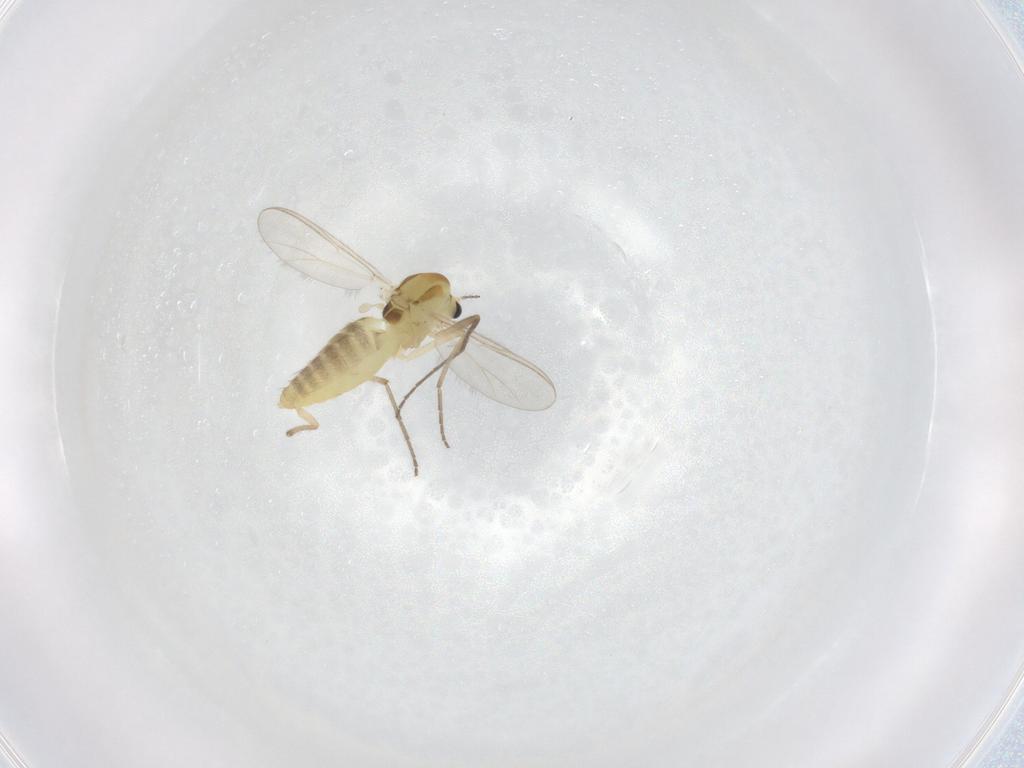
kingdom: Animalia
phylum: Arthropoda
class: Insecta
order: Diptera
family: Chironomidae
